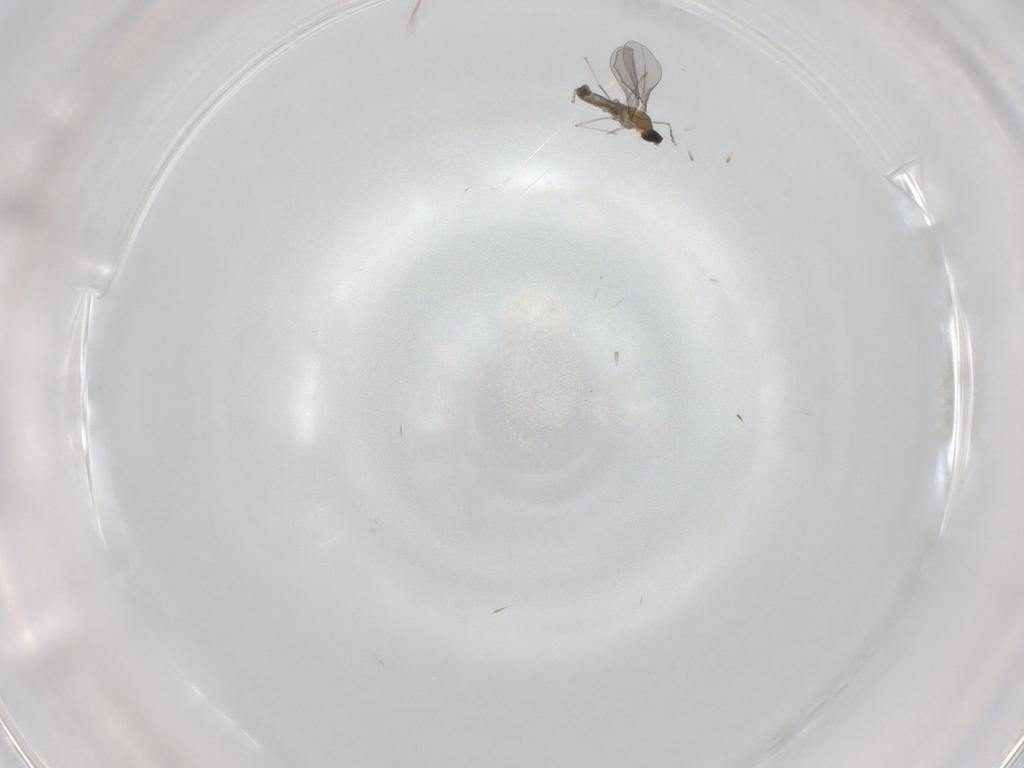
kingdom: Animalia
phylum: Arthropoda
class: Insecta
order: Diptera
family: Cecidomyiidae
